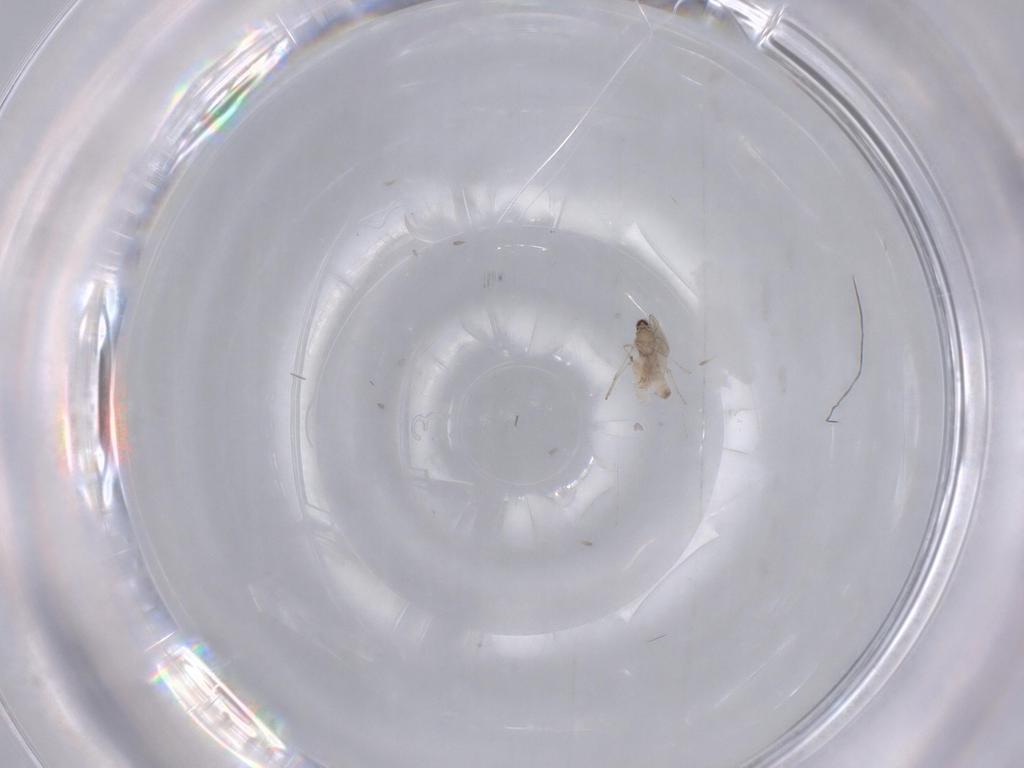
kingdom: Animalia
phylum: Arthropoda
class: Insecta
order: Diptera
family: Cecidomyiidae
